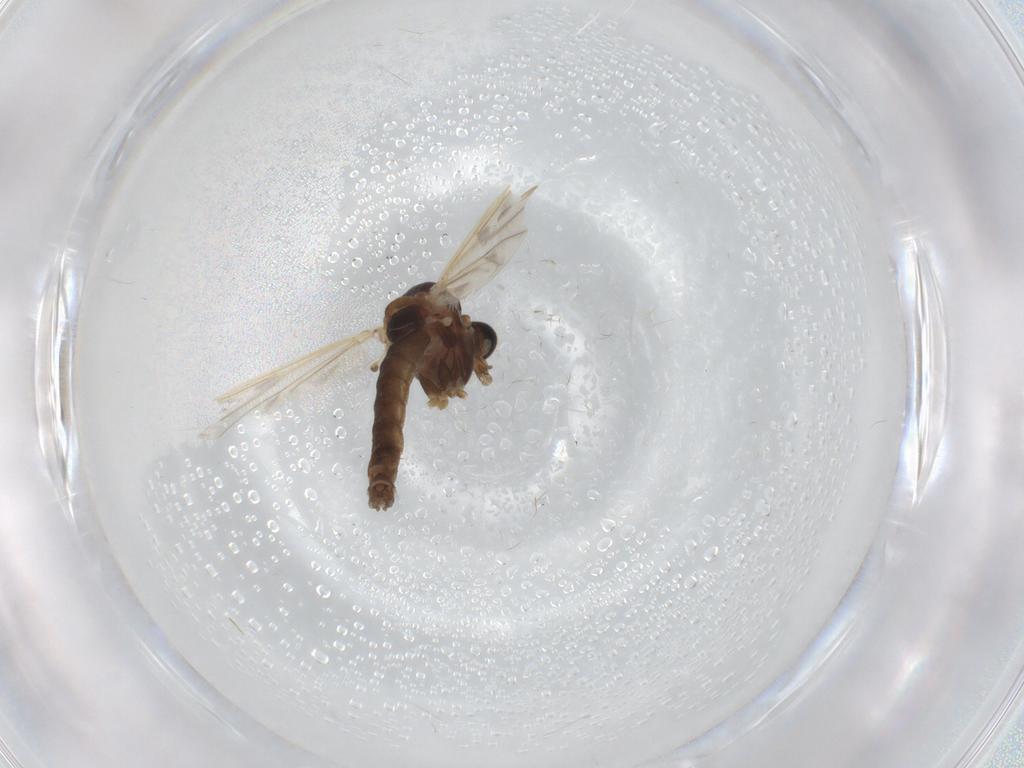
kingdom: Animalia
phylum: Arthropoda
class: Insecta
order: Diptera
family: Chironomidae
